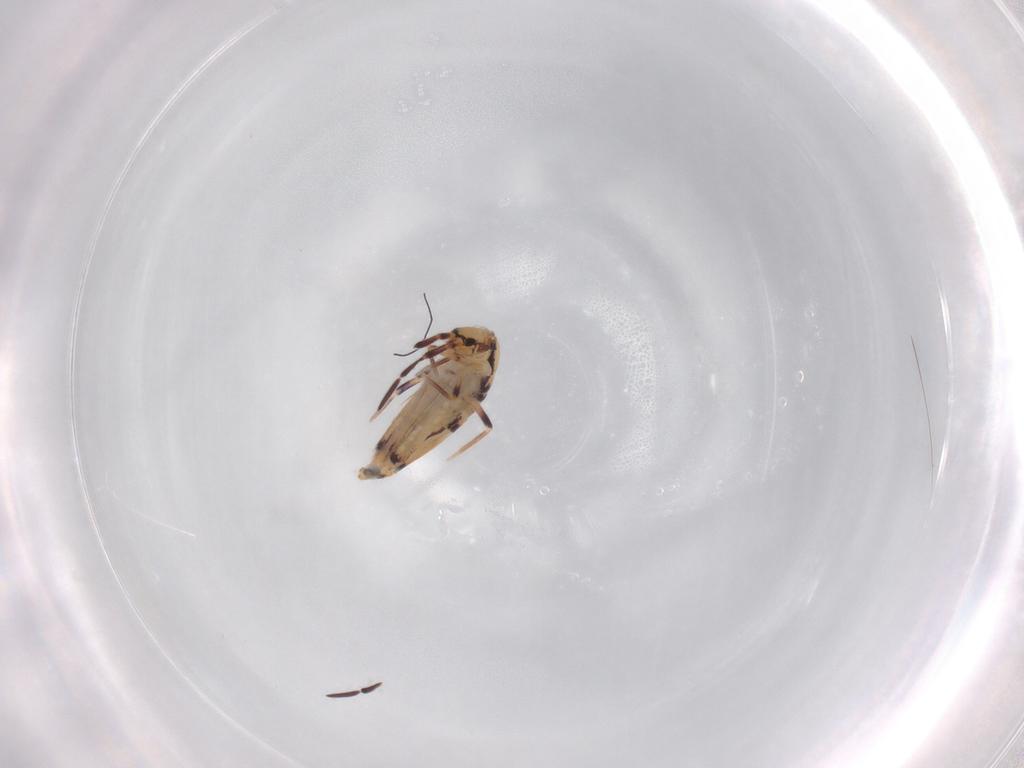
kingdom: Animalia
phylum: Arthropoda
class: Collembola
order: Entomobryomorpha
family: Entomobryidae
